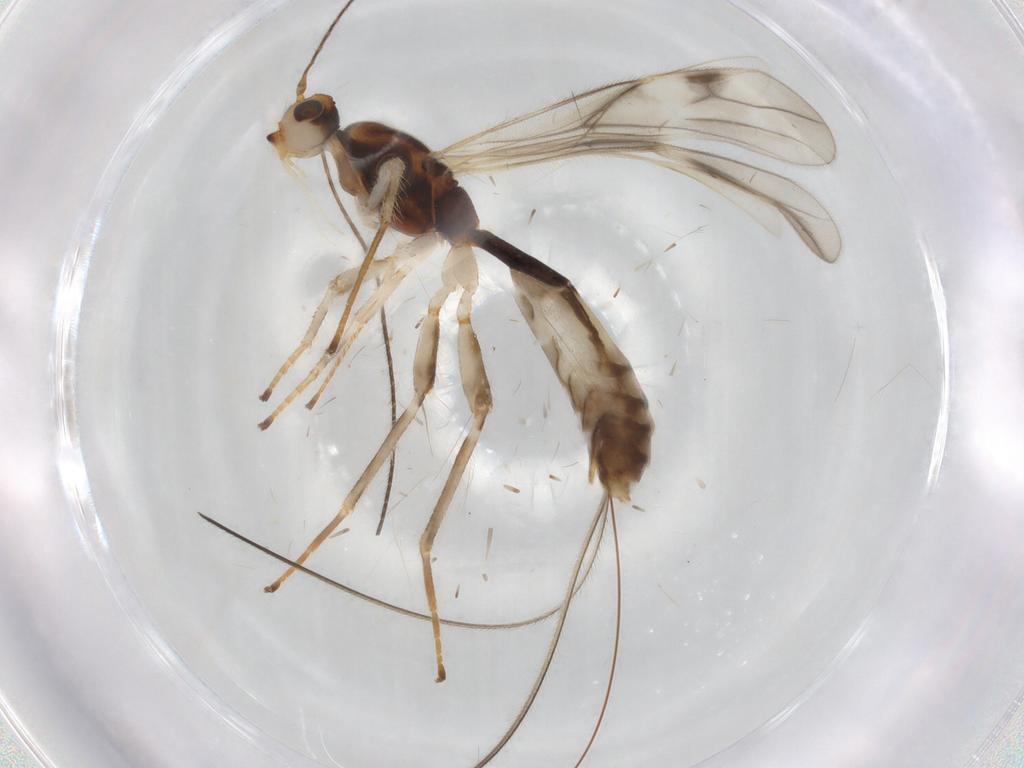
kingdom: Animalia
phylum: Arthropoda
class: Insecta
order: Hymenoptera
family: Braconidae
